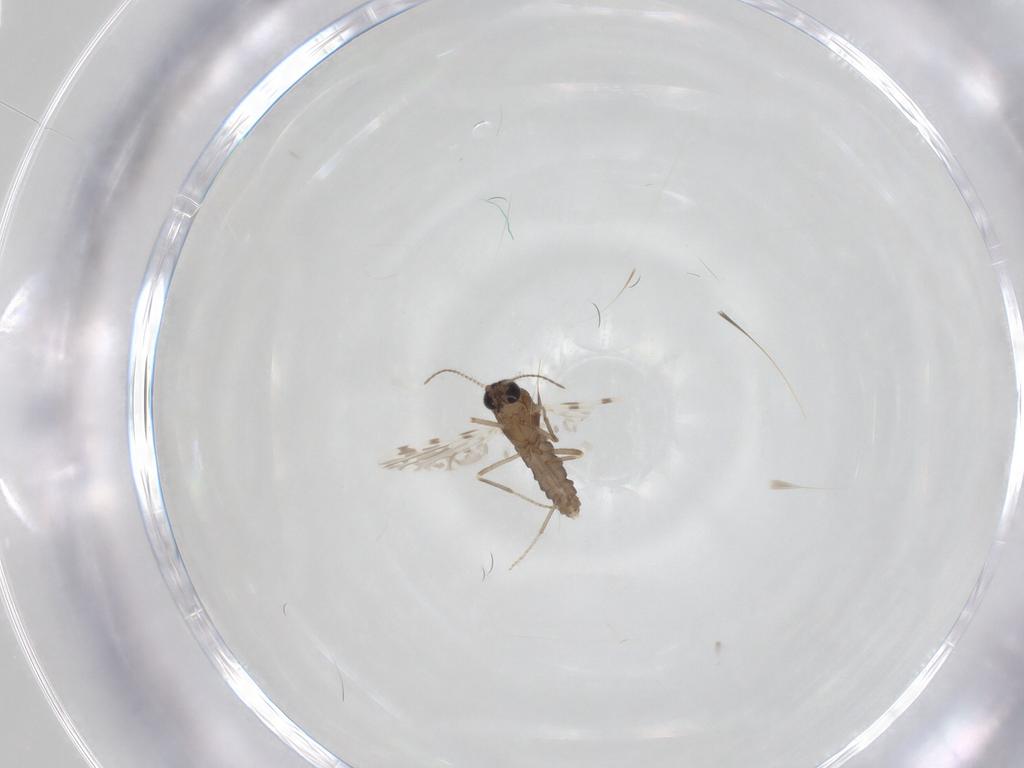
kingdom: Animalia
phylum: Arthropoda
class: Insecta
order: Diptera
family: Ceratopogonidae
